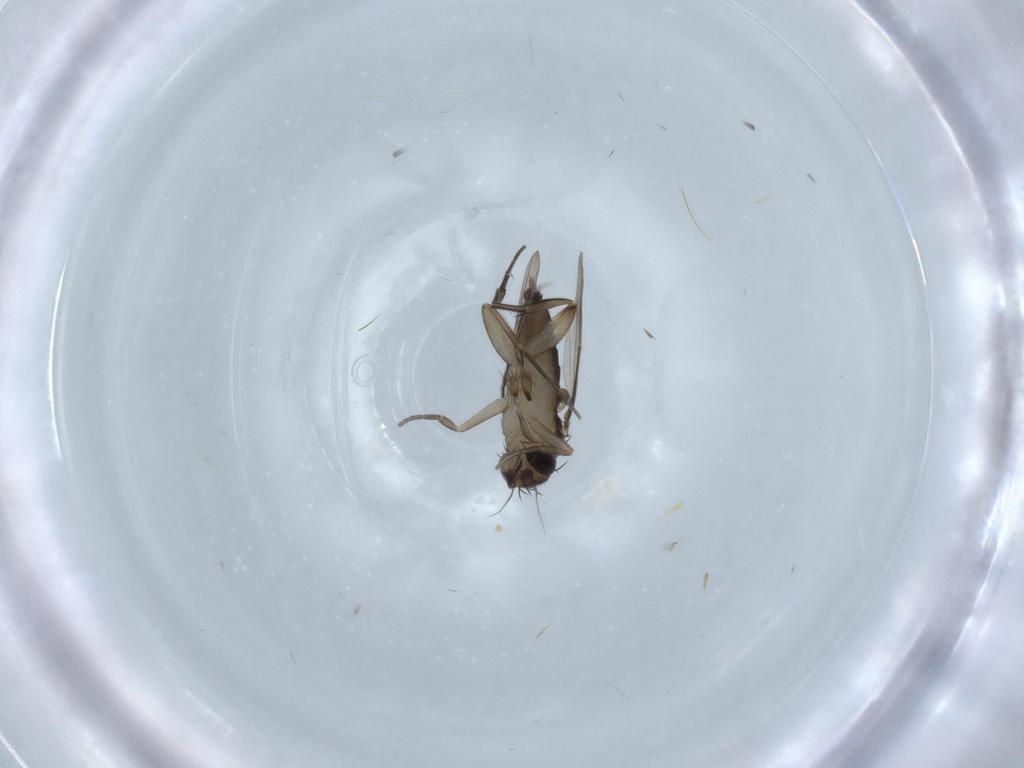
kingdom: Animalia
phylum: Arthropoda
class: Insecta
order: Diptera
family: Phoridae
